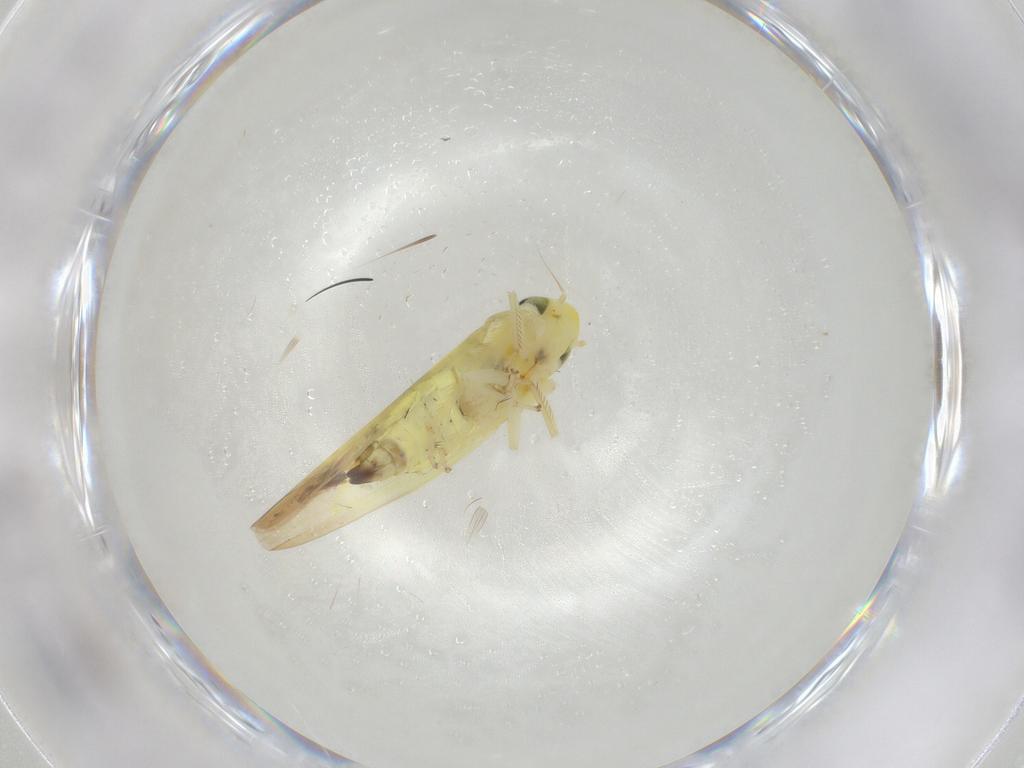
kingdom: Animalia
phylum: Arthropoda
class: Insecta
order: Hemiptera
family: Cicadellidae
